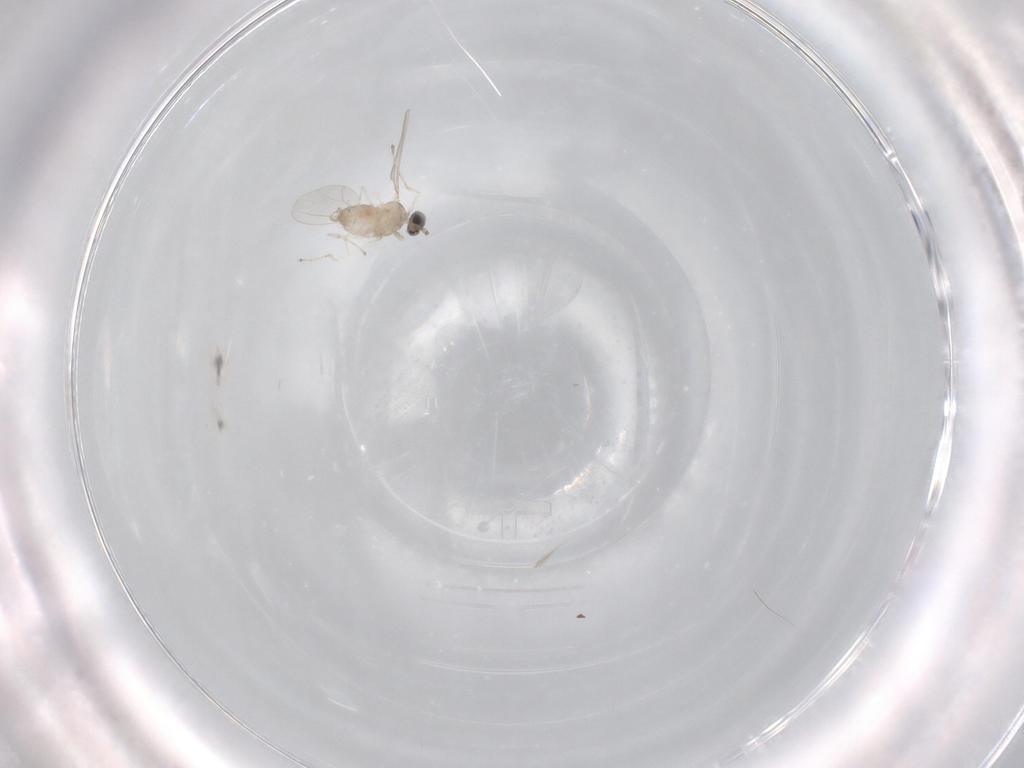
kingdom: Animalia
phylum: Arthropoda
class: Insecta
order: Diptera
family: Cecidomyiidae
